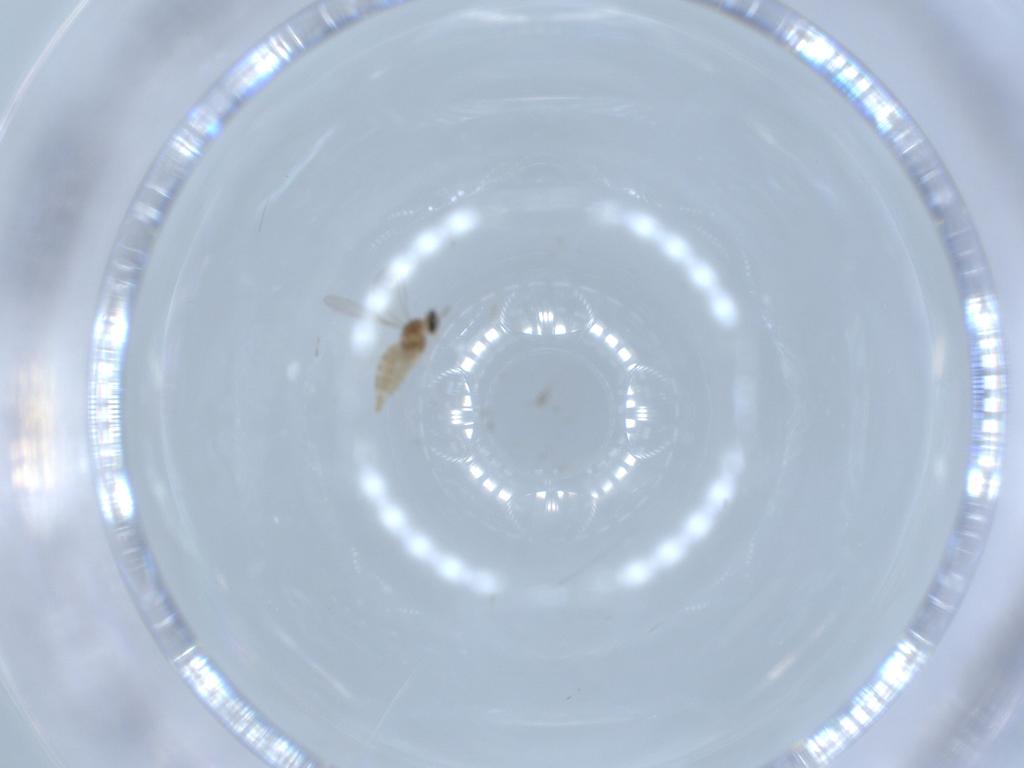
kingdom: Animalia
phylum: Arthropoda
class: Insecta
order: Diptera
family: Cecidomyiidae
